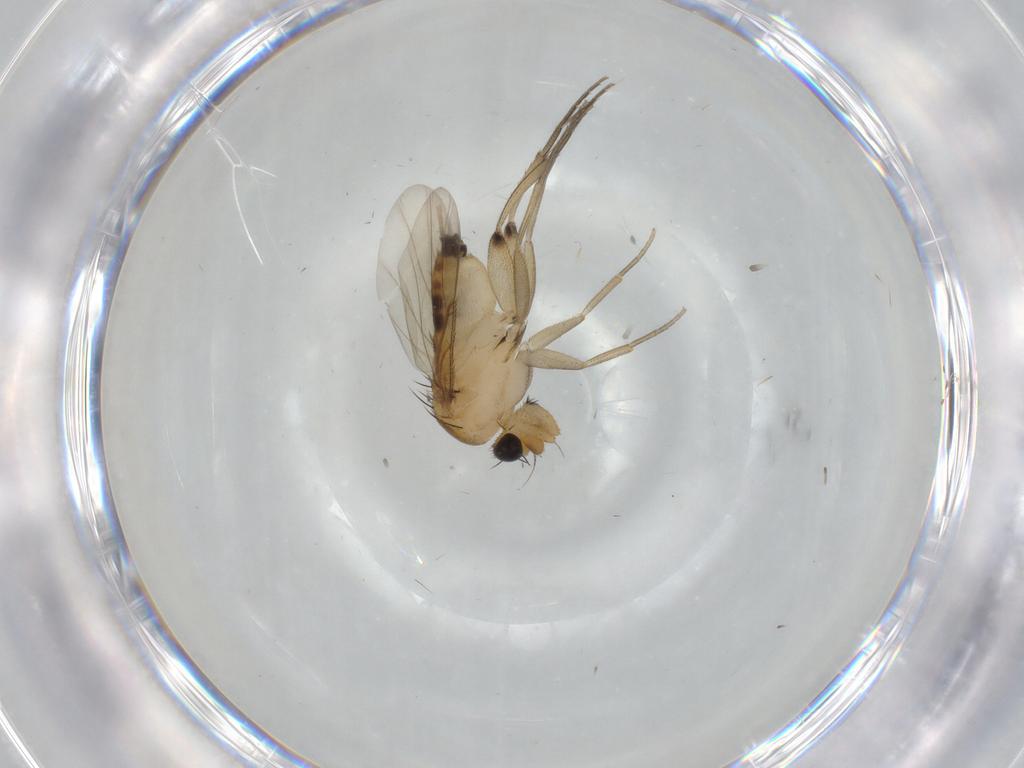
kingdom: Animalia
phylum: Arthropoda
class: Insecta
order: Diptera
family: Phoridae
